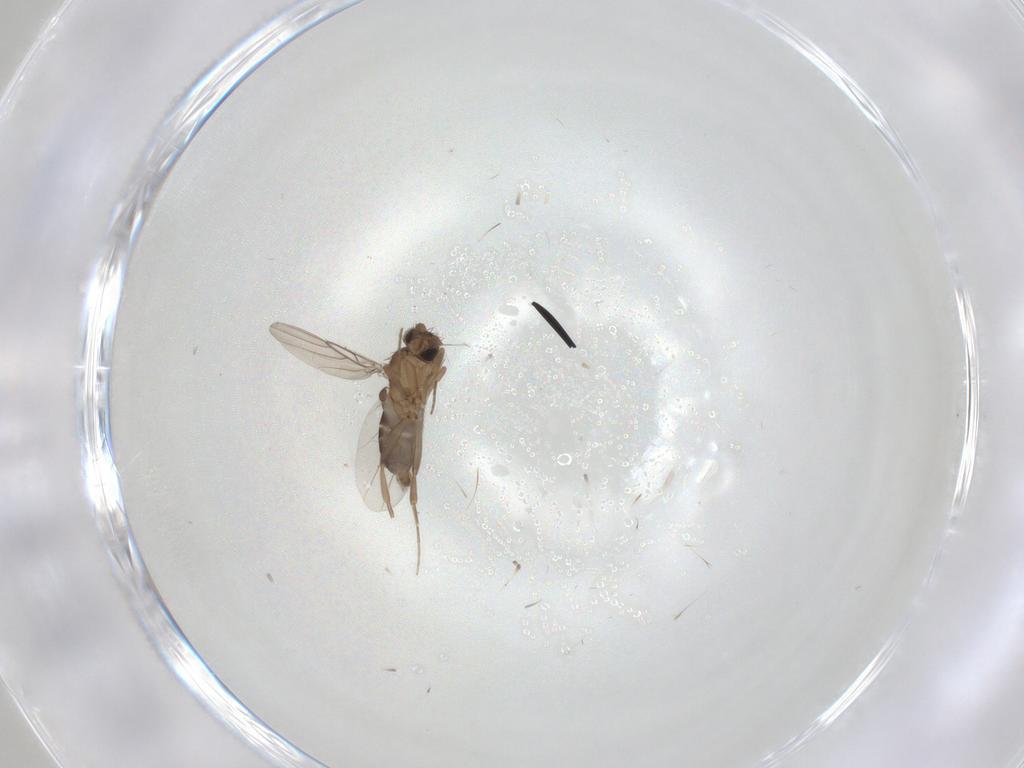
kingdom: Animalia
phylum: Arthropoda
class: Insecta
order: Diptera
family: Phoridae
